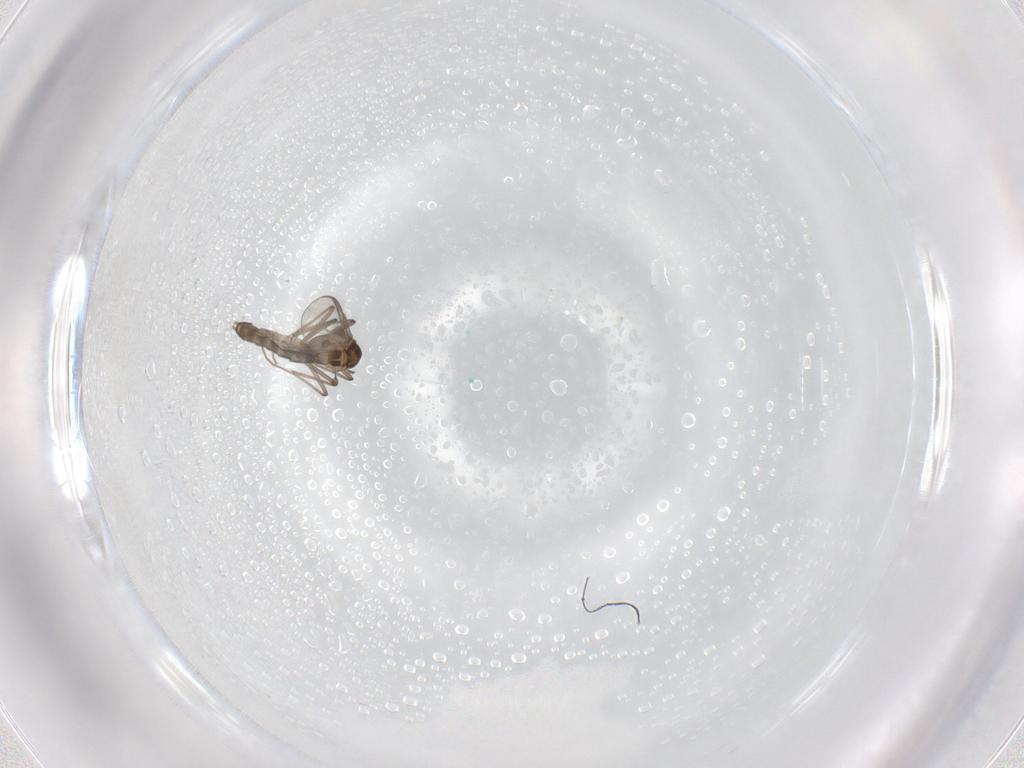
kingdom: Animalia
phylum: Arthropoda
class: Insecta
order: Diptera
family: Chironomidae
